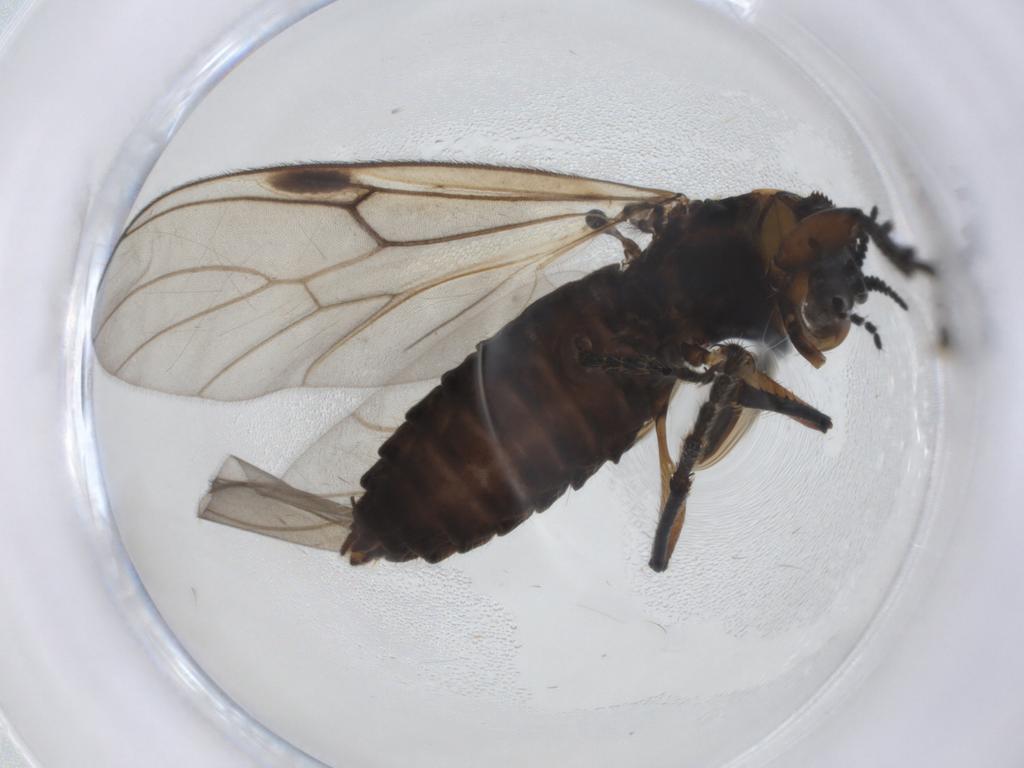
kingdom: Animalia
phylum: Arthropoda
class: Insecta
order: Diptera
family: Bibionidae
